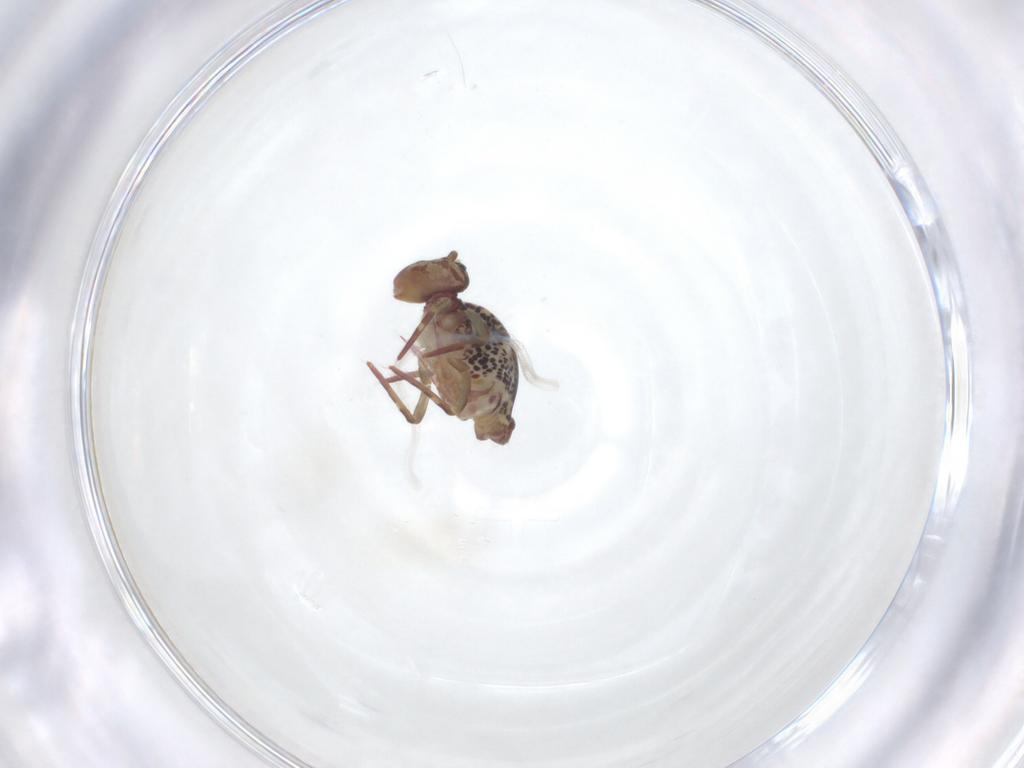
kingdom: Animalia
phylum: Arthropoda
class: Collembola
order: Symphypleona
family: Dicyrtomidae
